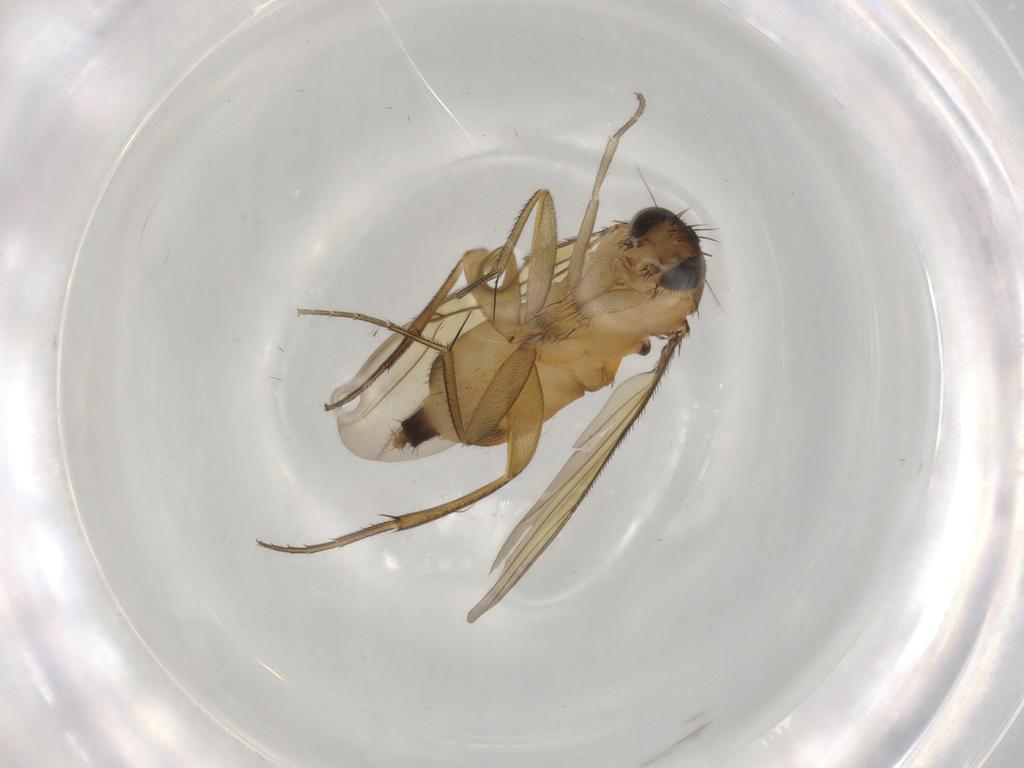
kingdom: Animalia
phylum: Arthropoda
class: Insecta
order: Diptera
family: Phoridae
